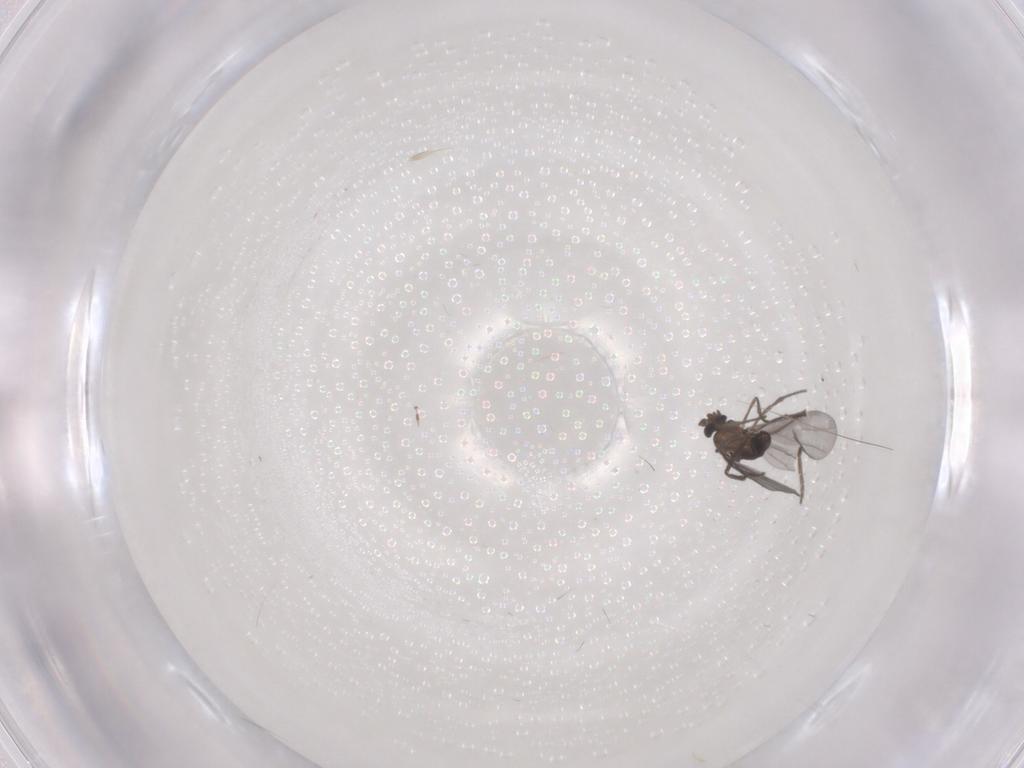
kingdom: Animalia
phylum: Arthropoda
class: Insecta
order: Diptera
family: Phoridae
